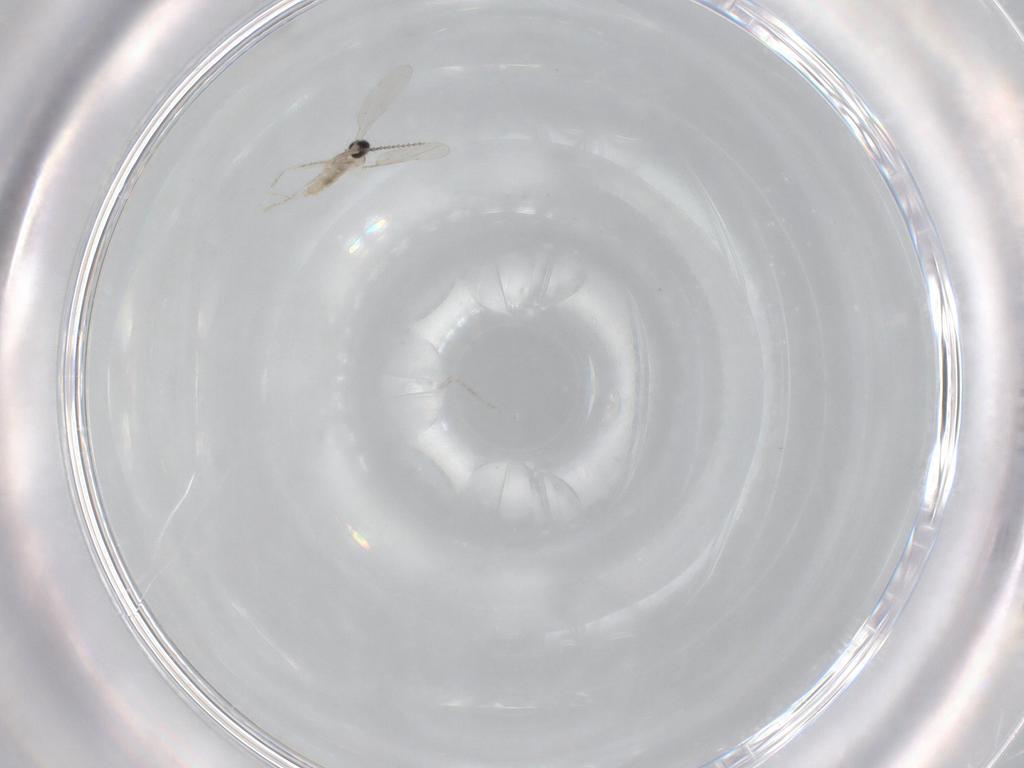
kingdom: Animalia
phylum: Arthropoda
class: Insecta
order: Diptera
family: Cecidomyiidae
